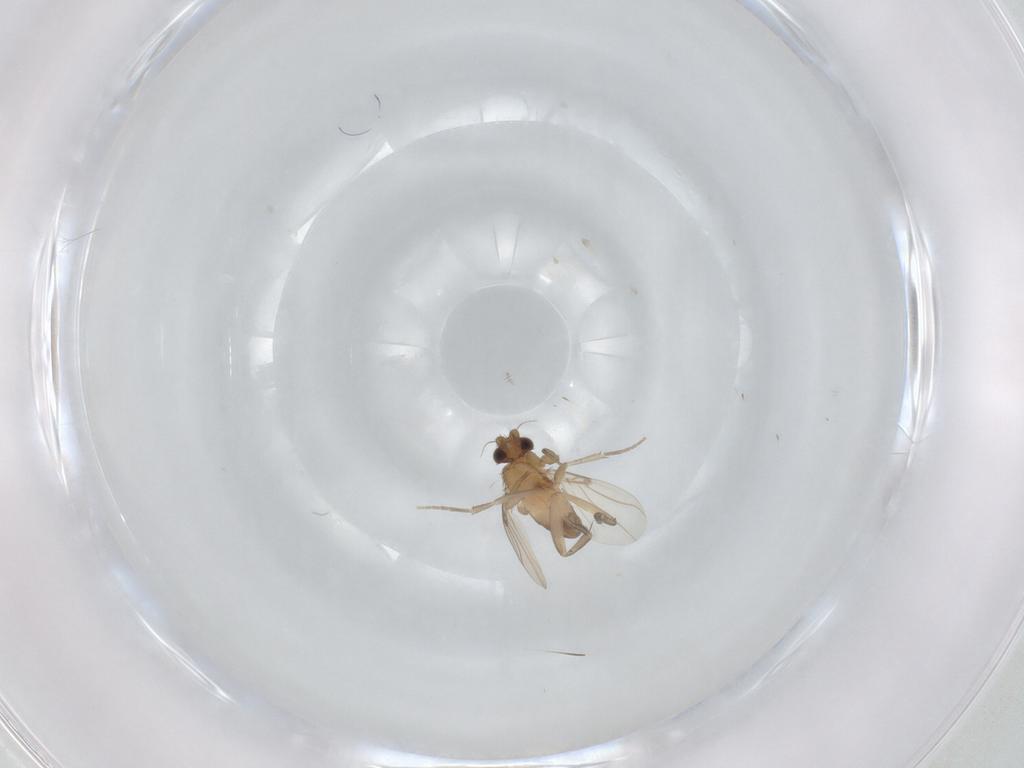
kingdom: Animalia
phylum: Arthropoda
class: Insecta
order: Diptera
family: Phoridae
